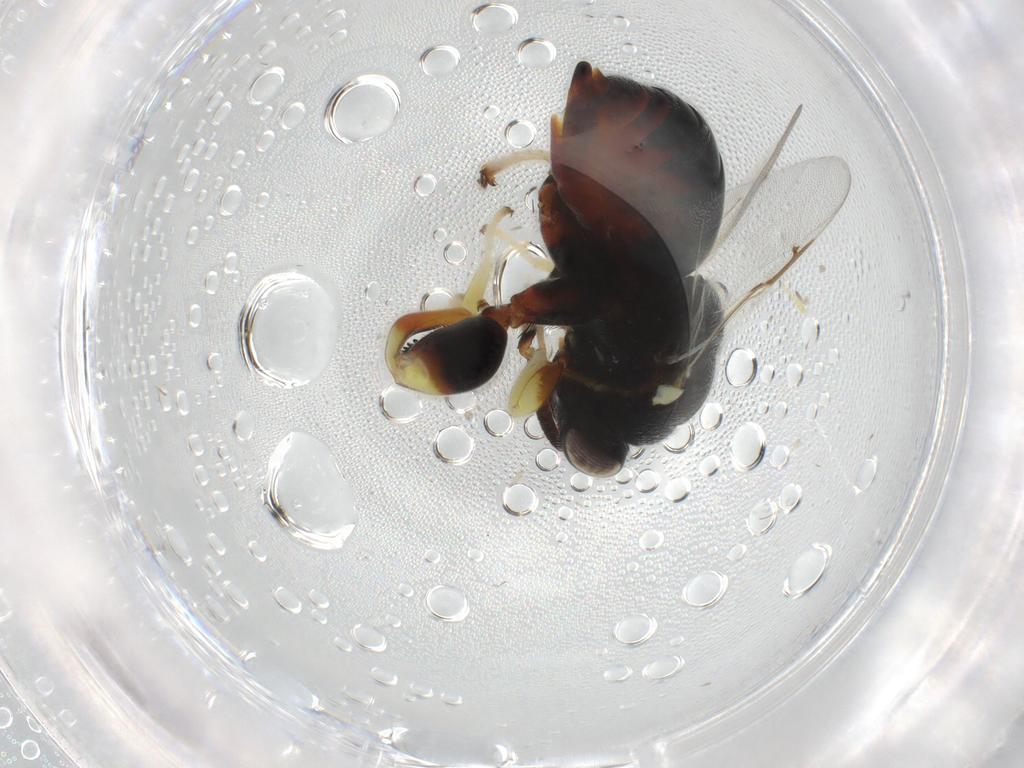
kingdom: Animalia
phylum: Arthropoda
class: Insecta
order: Hymenoptera
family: Chalcididae
